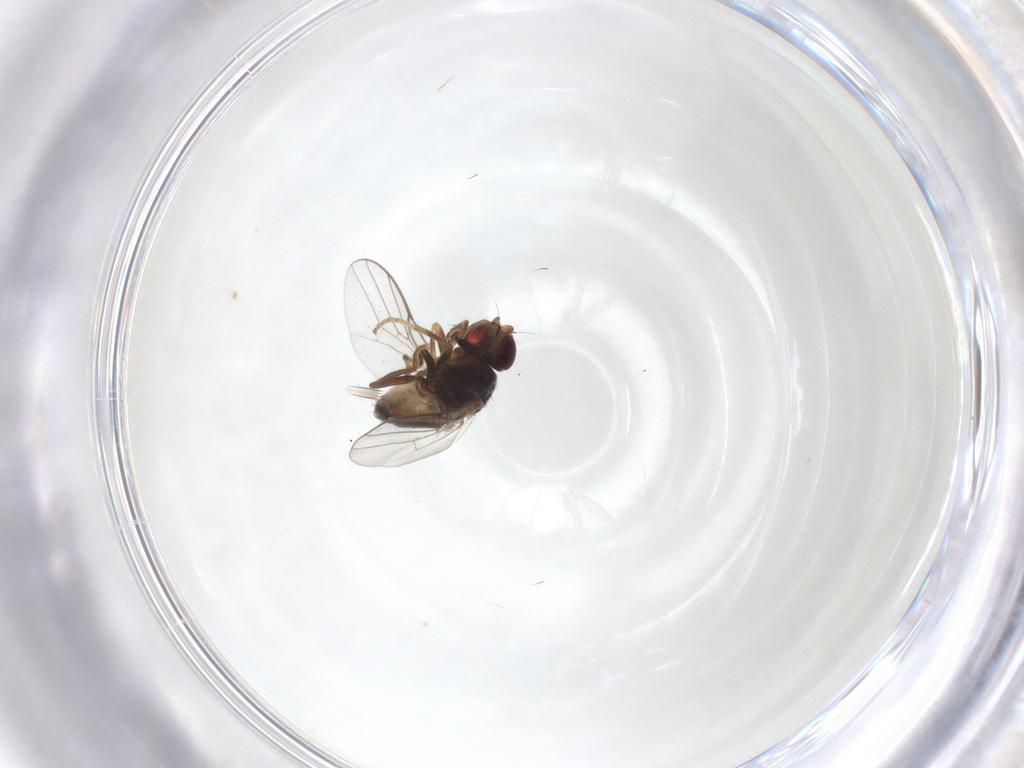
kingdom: Animalia
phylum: Arthropoda
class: Insecta
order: Diptera
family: Chloropidae
